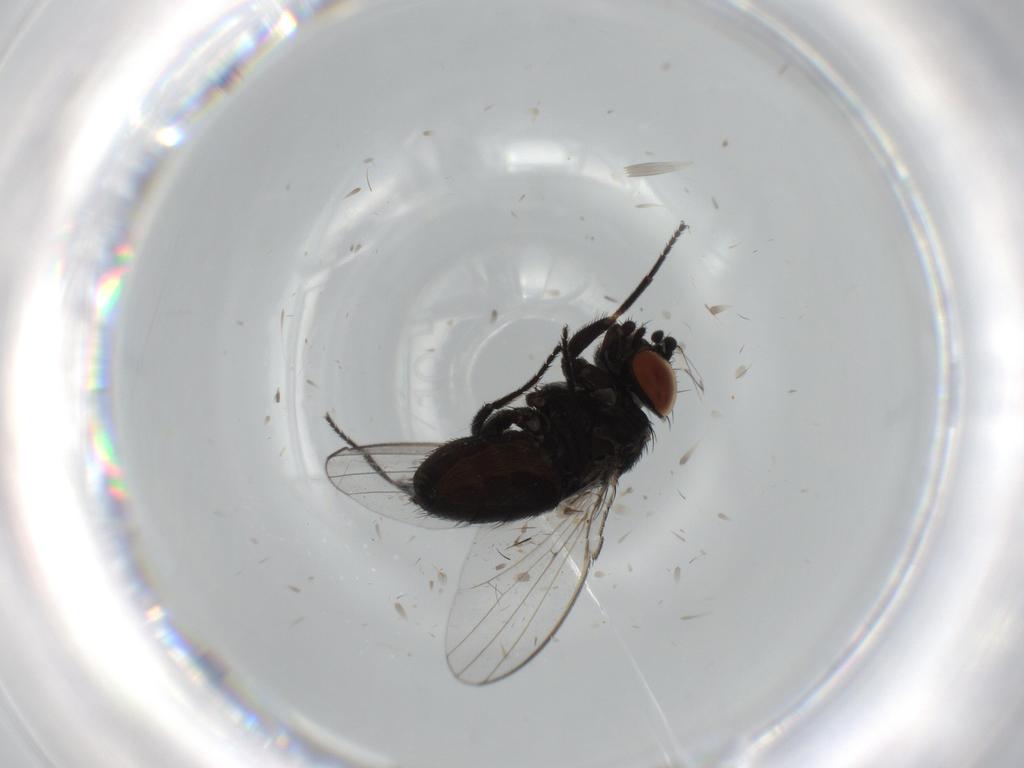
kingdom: Animalia
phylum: Arthropoda
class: Insecta
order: Diptera
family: Milichiidae
